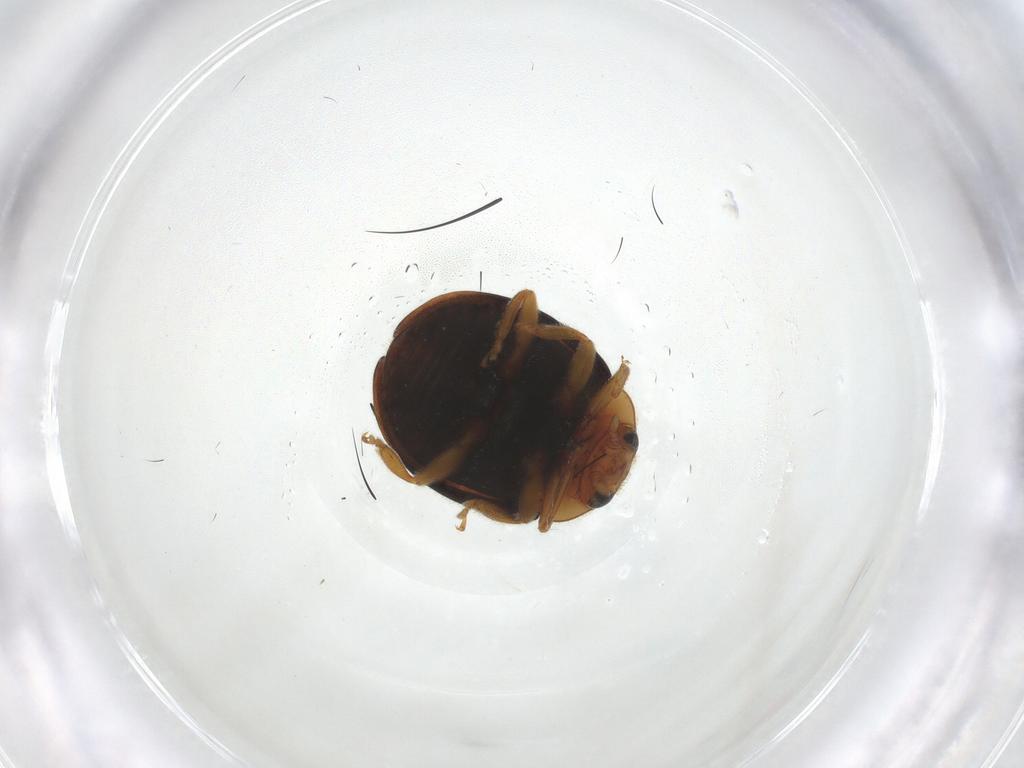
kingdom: Animalia
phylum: Arthropoda
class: Insecta
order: Coleoptera
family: Coccinellidae
